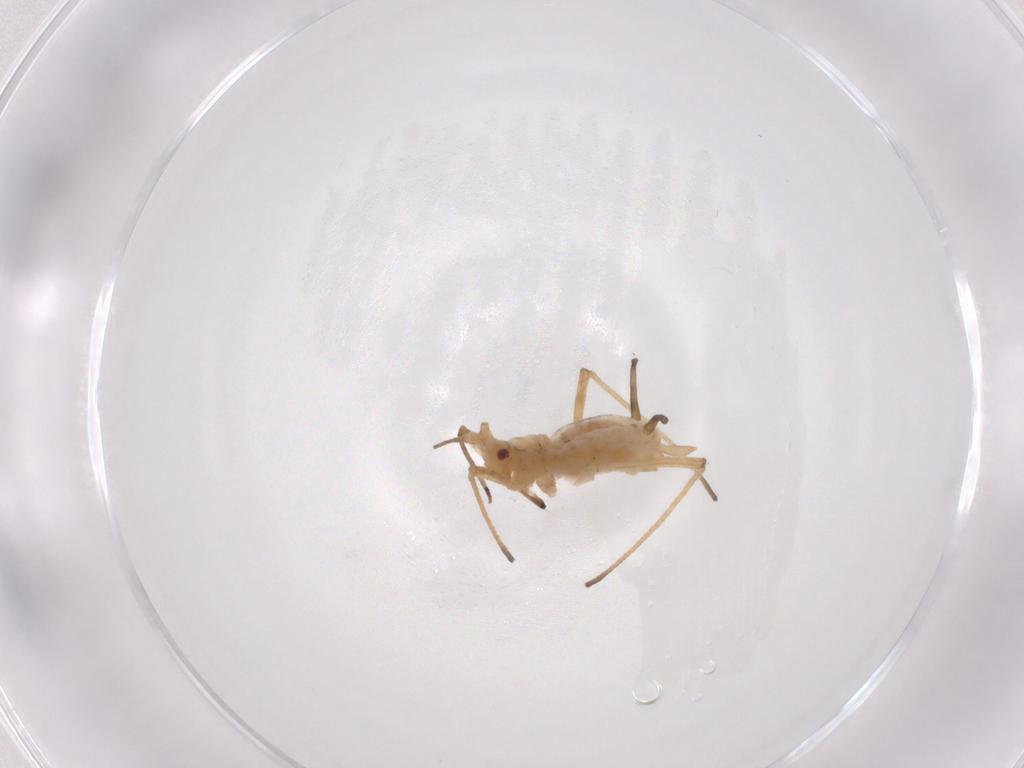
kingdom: Animalia
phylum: Arthropoda
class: Insecta
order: Hemiptera
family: Aphididae
